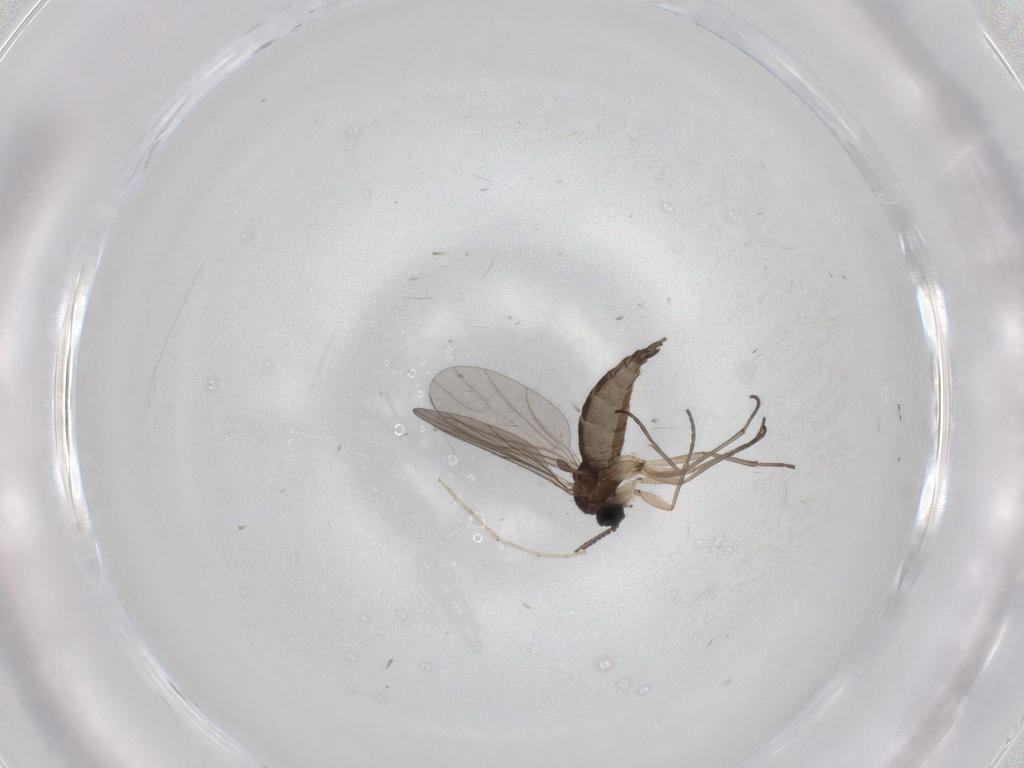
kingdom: Animalia
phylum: Arthropoda
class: Insecta
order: Diptera
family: Sciaridae
